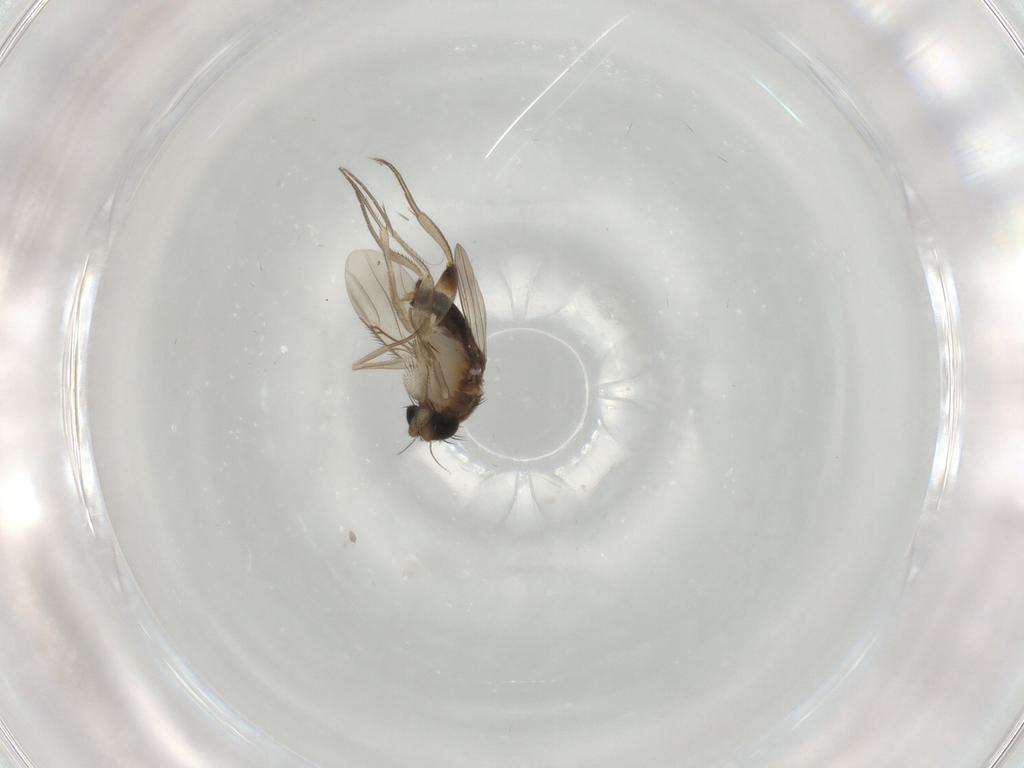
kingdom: Animalia
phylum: Arthropoda
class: Insecta
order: Diptera
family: Phoridae
